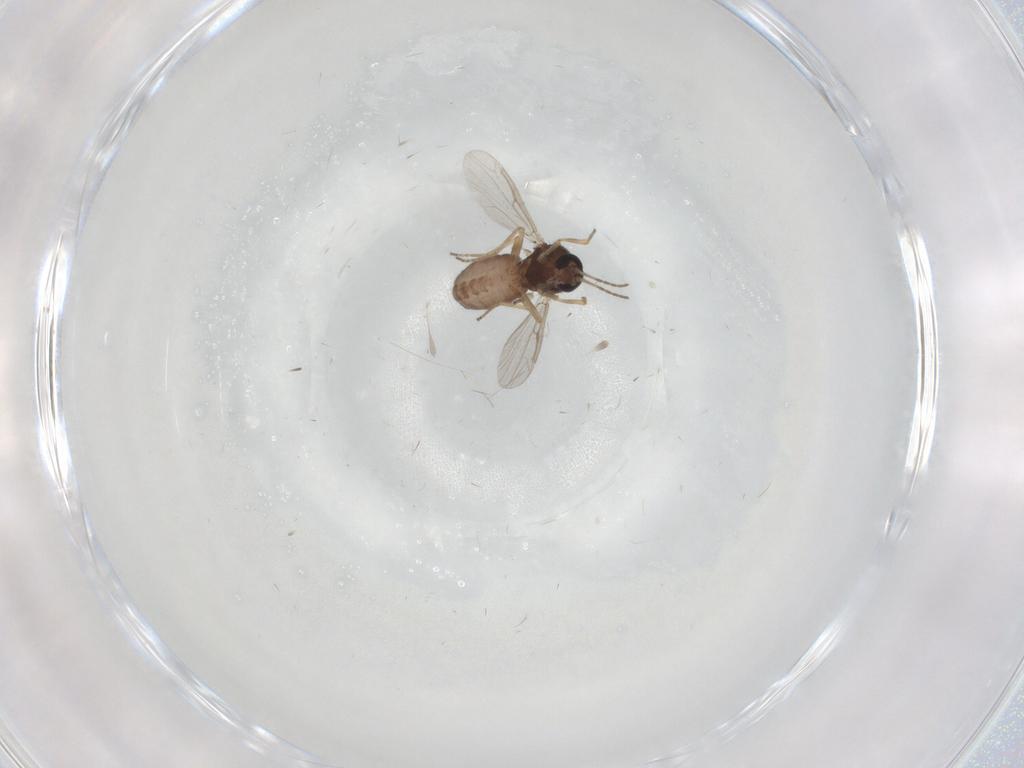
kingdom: Animalia
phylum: Arthropoda
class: Insecta
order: Diptera
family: Ceratopogonidae
